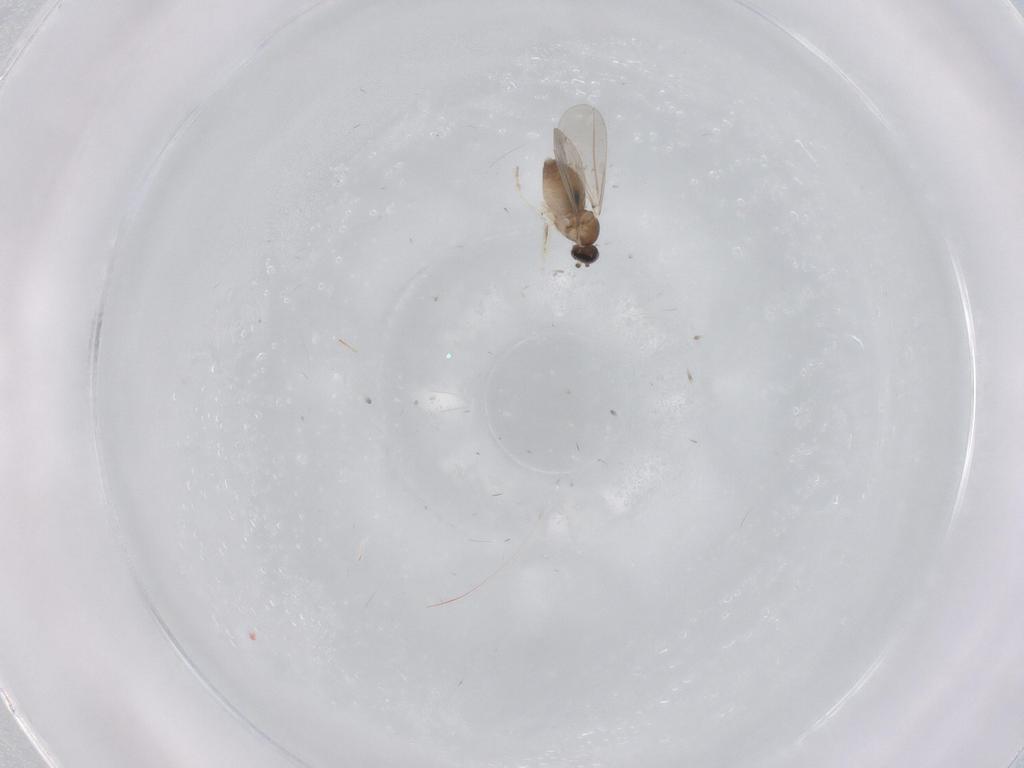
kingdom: Animalia
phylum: Arthropoda
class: Insecta
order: Diptera
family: Cecidomyiidae
